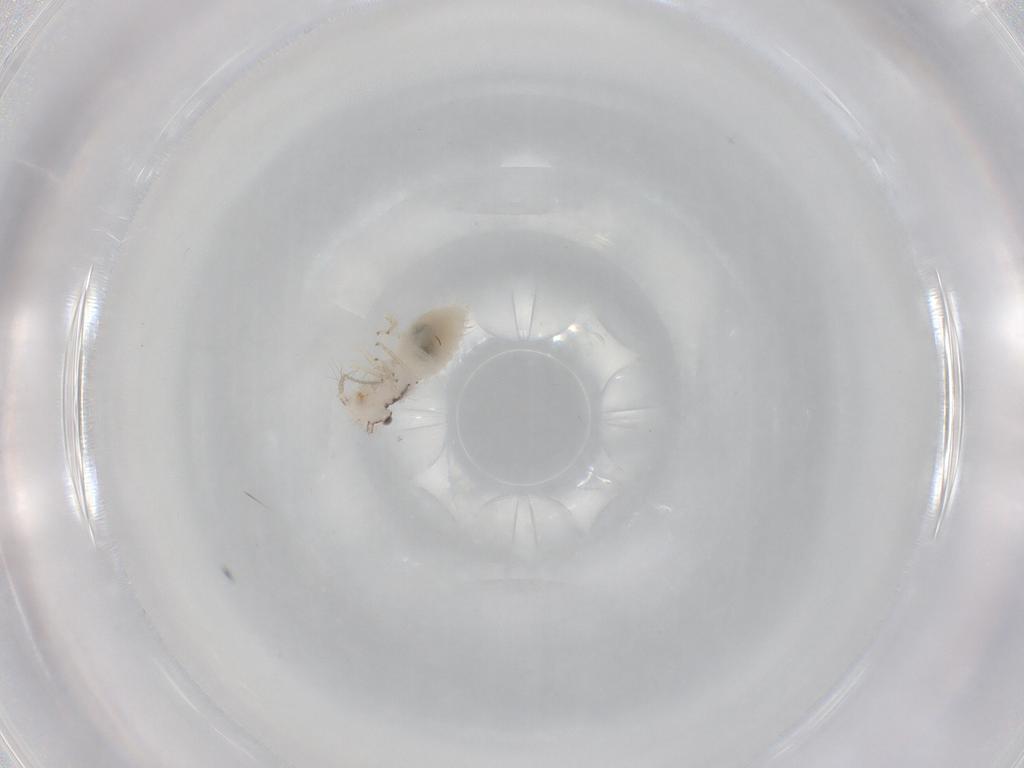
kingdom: Animalia
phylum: Arthropoda
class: Insecta
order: Psocodea
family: Pseudocaeciliidae
